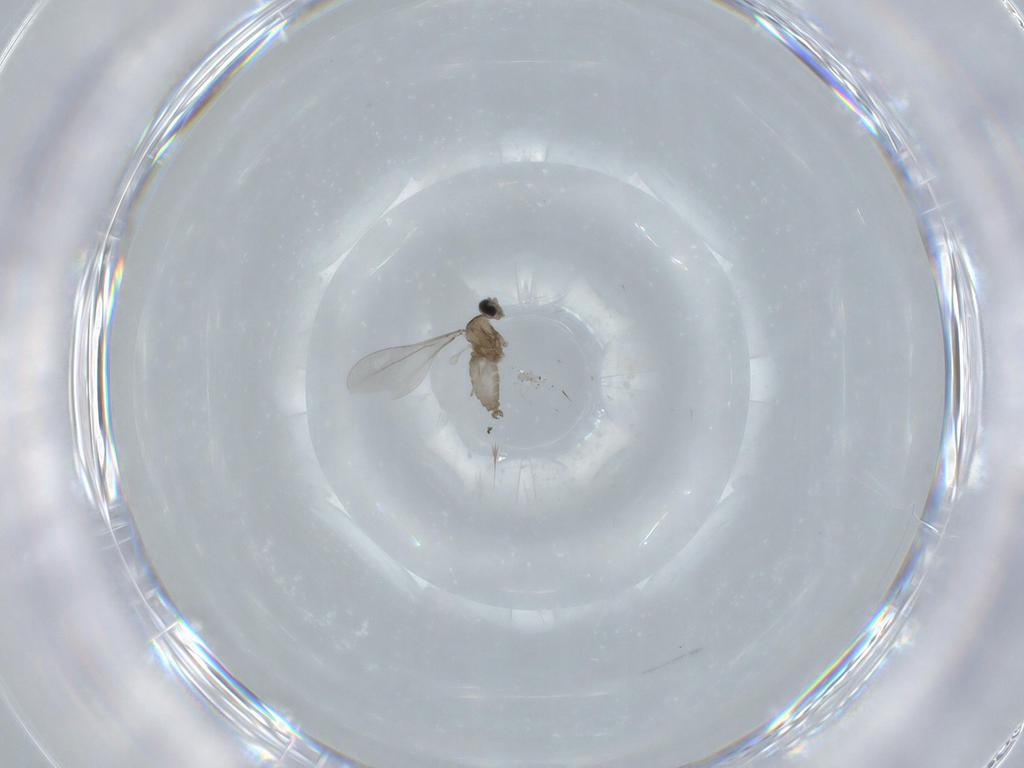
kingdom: Animalia
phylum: Arthropoda
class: Insecta
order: Diptera
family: Cecidomyiidae
